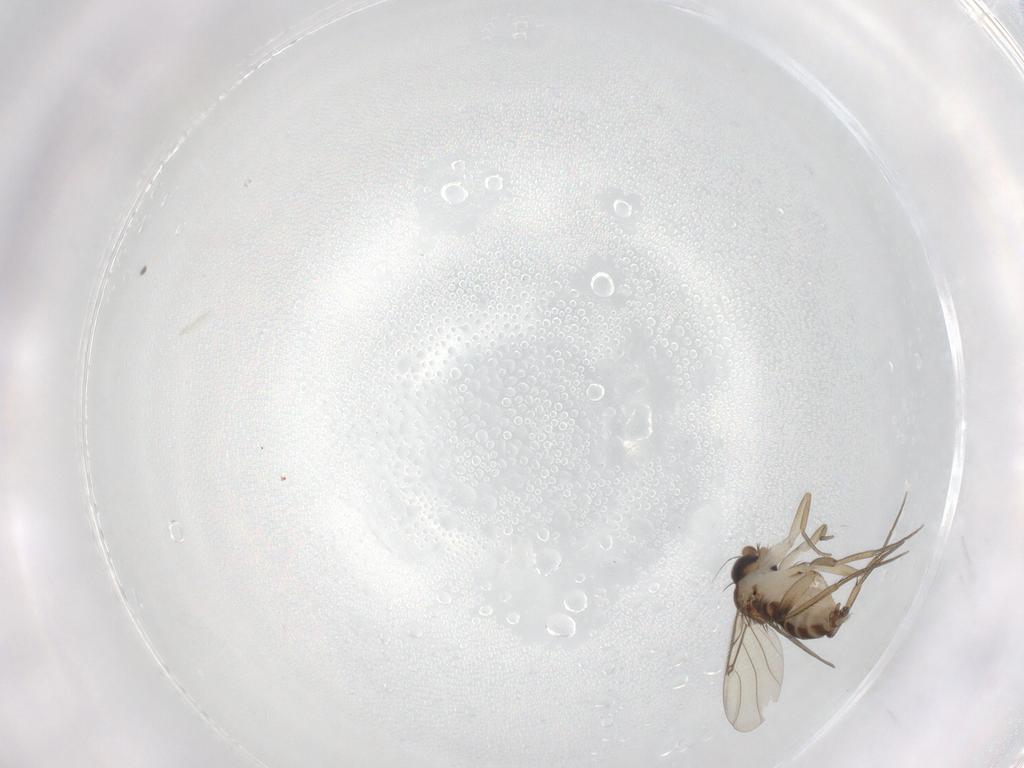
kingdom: Animalia
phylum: Arthropoda
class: Insecta
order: Diptera
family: Phoridae
